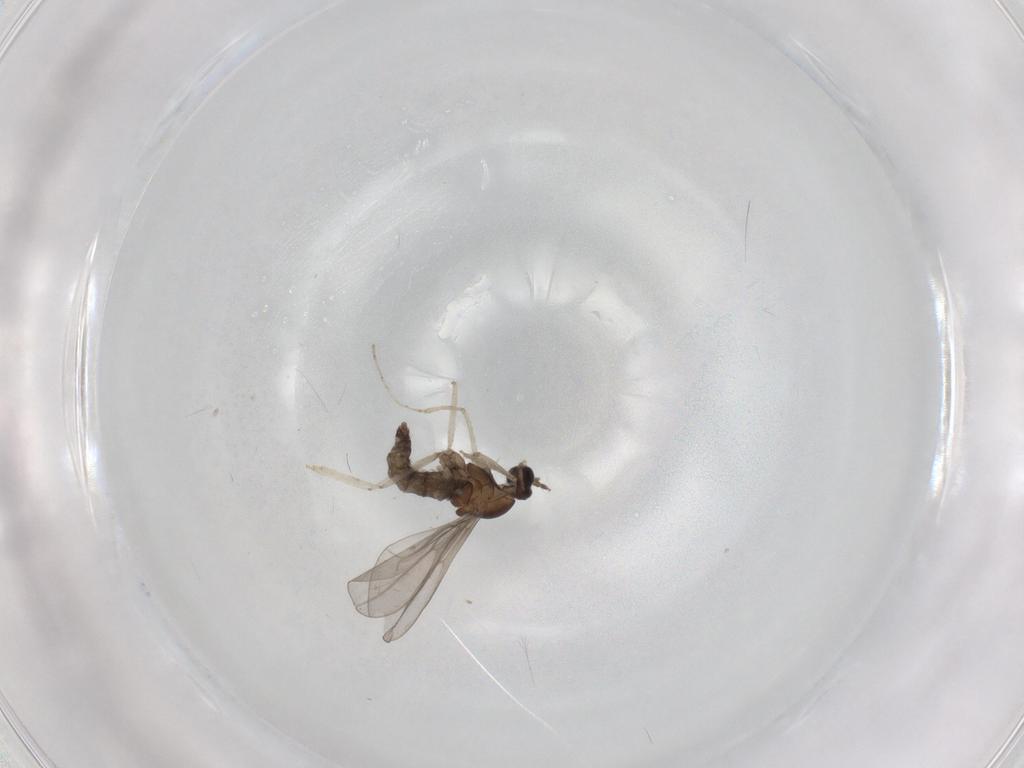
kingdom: Animalia
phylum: Arthropoda
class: Insecta
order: Diptera
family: Cecidomyiidae
